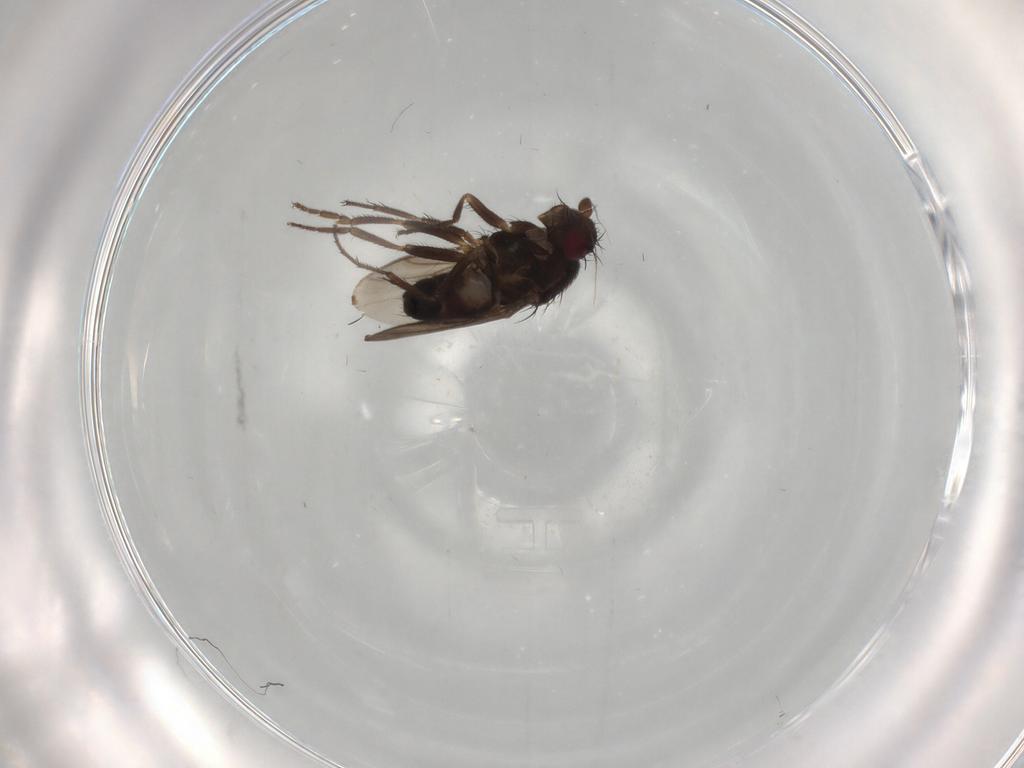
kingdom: Animalia
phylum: Arthropoda
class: Insecta
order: Diptera
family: Sphaeroceridae
